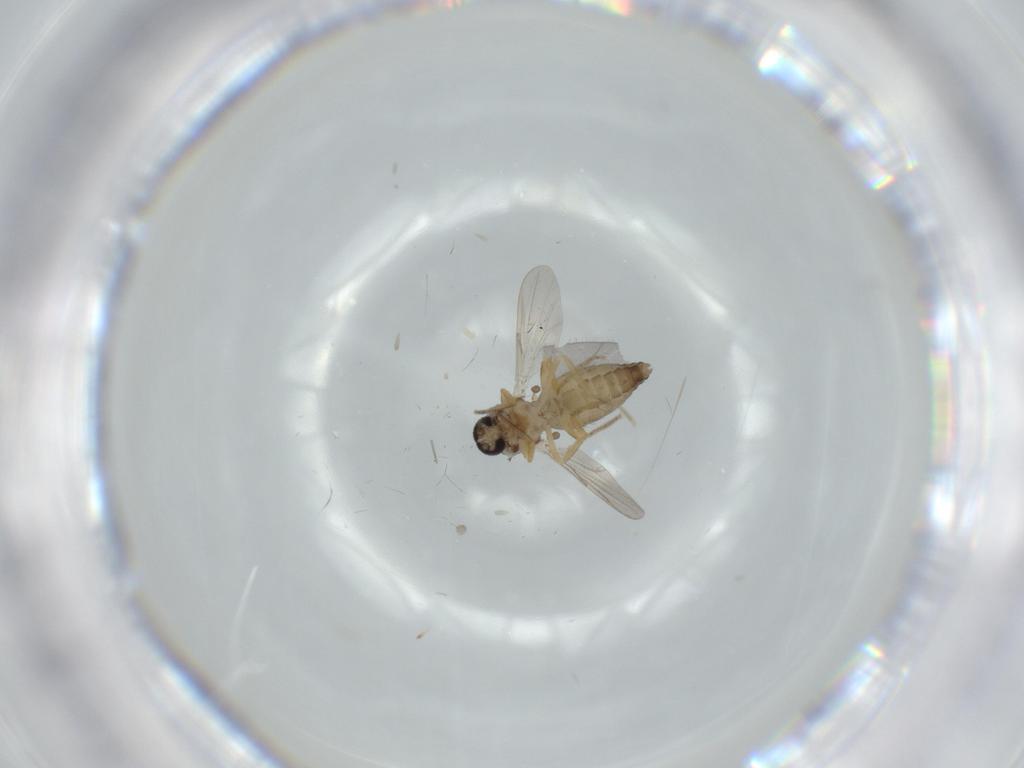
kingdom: Animalia
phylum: Arthropoda
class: Insecta
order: Diptera
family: Ceratopogonidae
